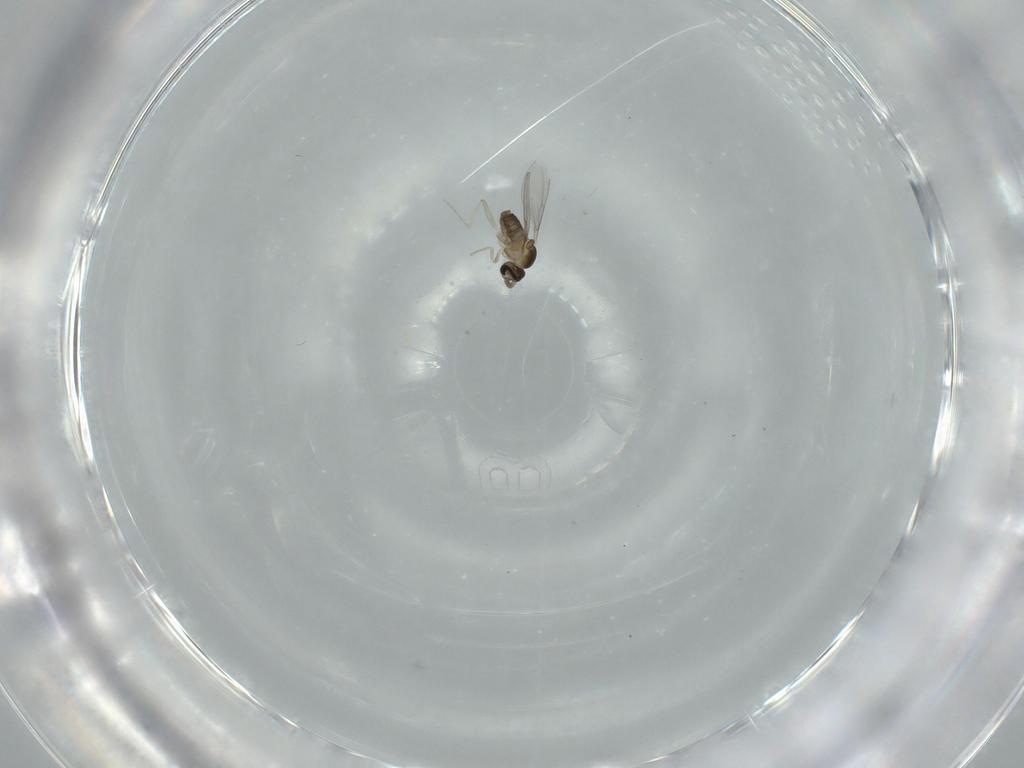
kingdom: Animalia
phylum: Arthropoda
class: Insecta
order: Diptera
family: Cecidomyiidae
